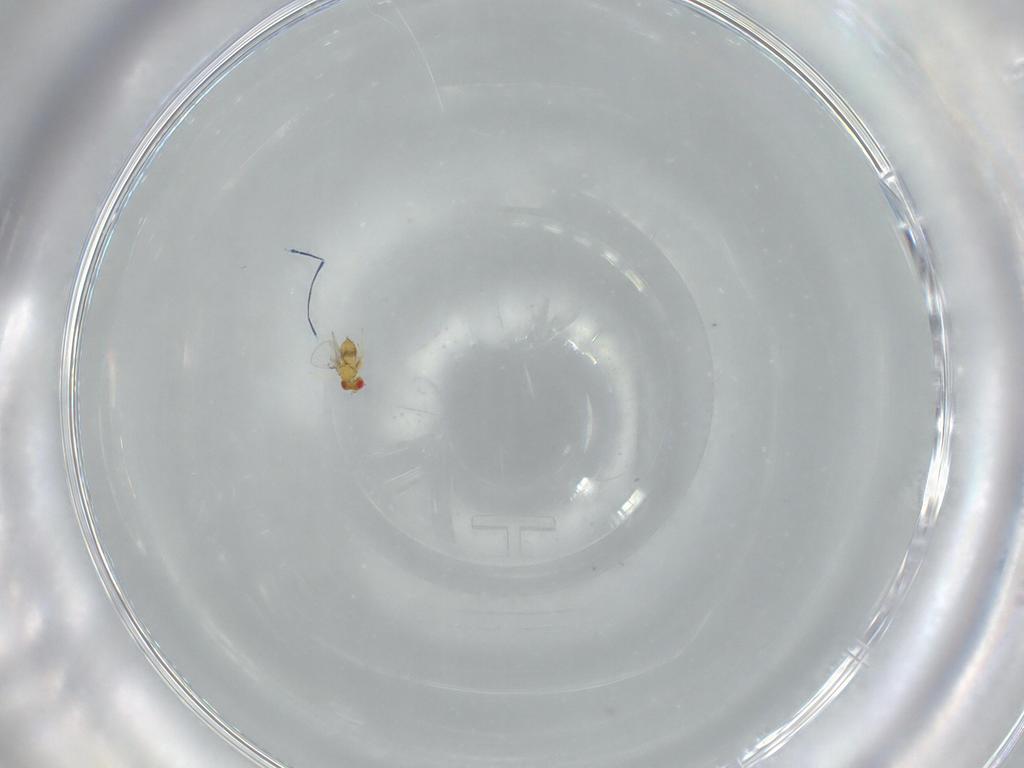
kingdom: Animalia
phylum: Arthropoda
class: Insecta
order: Hymenoptera
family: Trichogrammatidae
